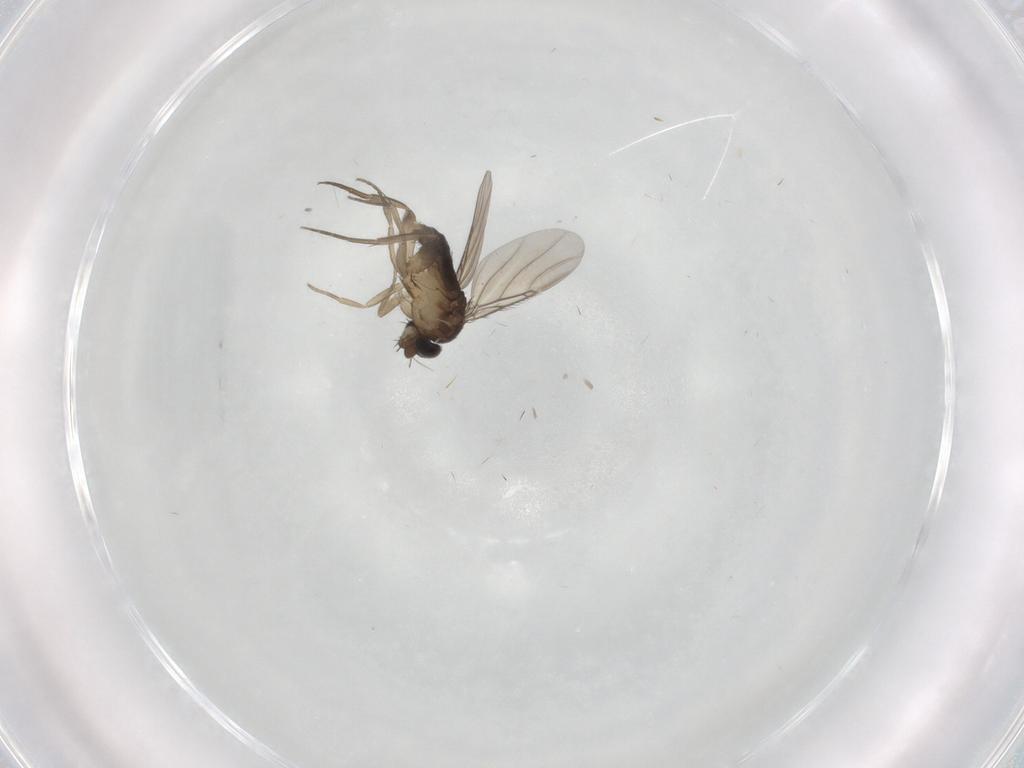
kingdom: Animalia
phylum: Arthropoda
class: Insecta
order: Diptera
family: Phoridae
